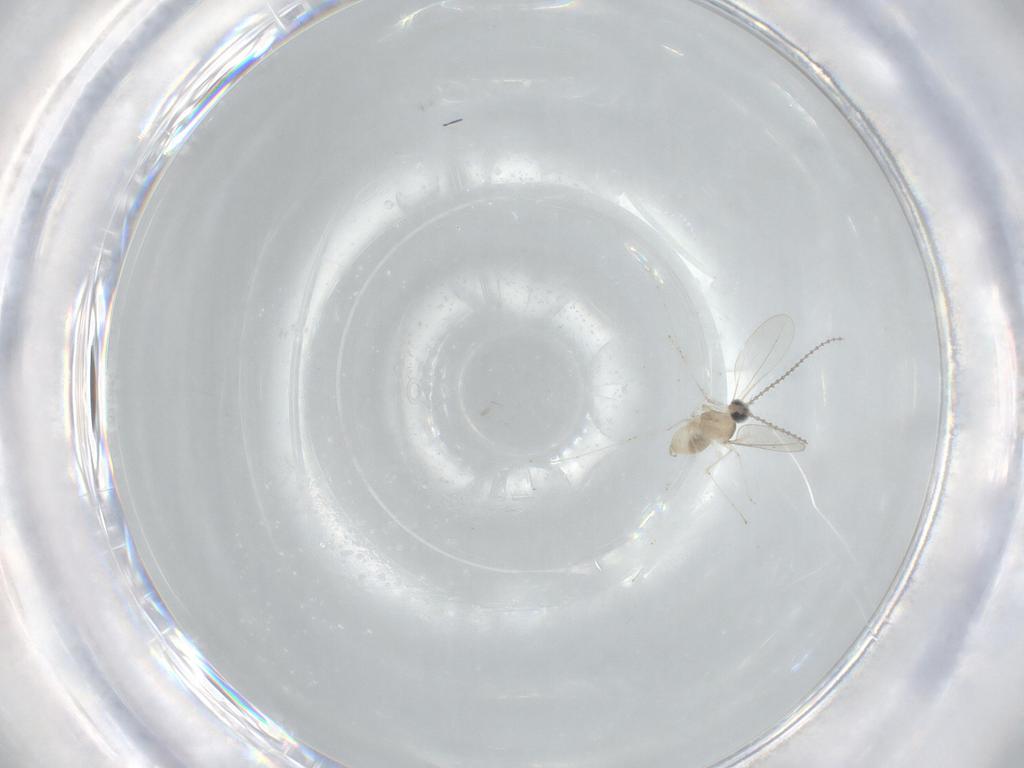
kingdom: Animalia
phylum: Arthropoda
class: Insecta
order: Diptera
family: Cecidomyiidae
